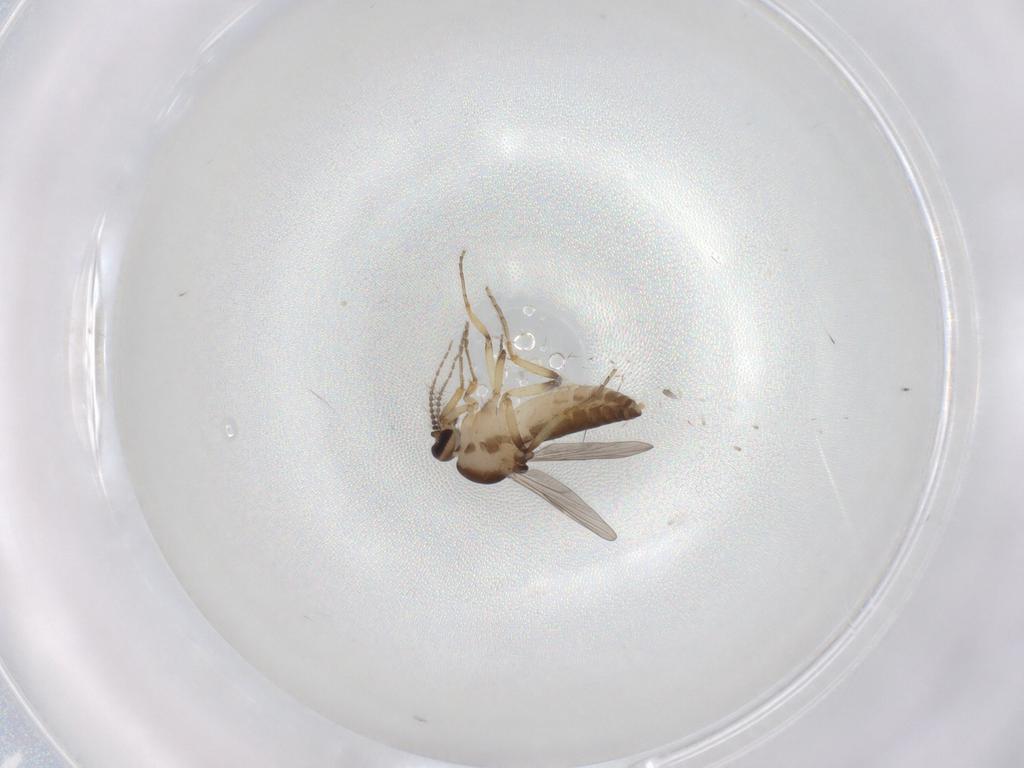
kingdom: Animalia
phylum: Arthropoda
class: Insecta
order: Diptera
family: Ceratopogonidae
